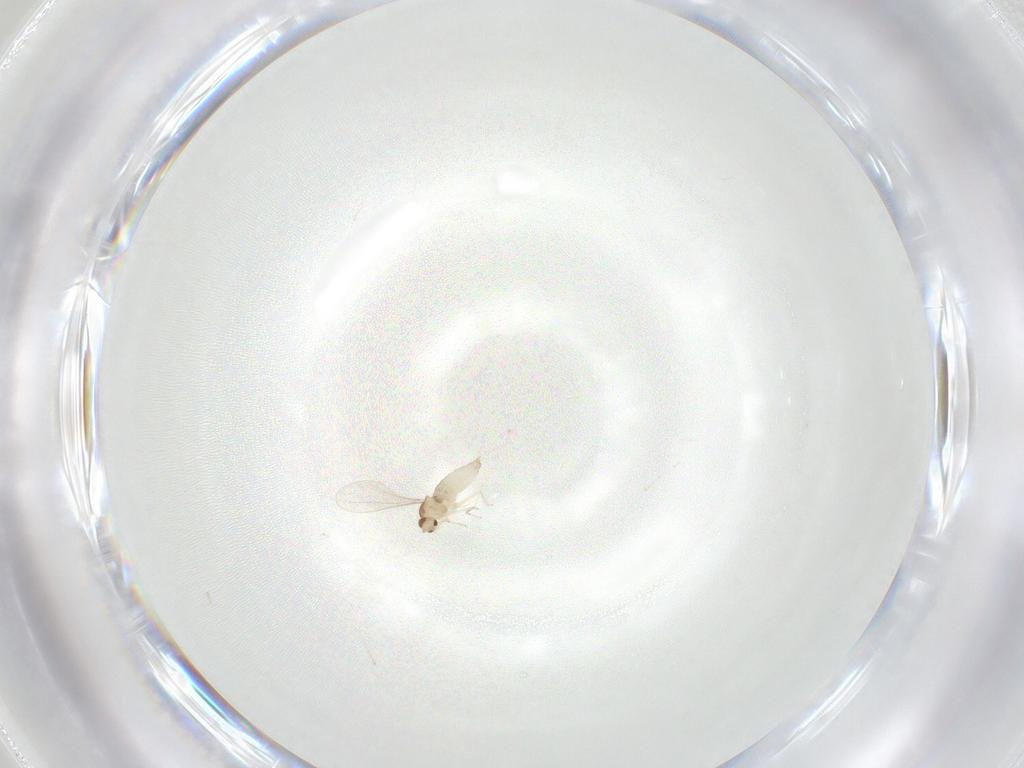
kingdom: Animalia
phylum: Arthropoda
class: Insecta
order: Diptera
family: Cecidomyiidae
